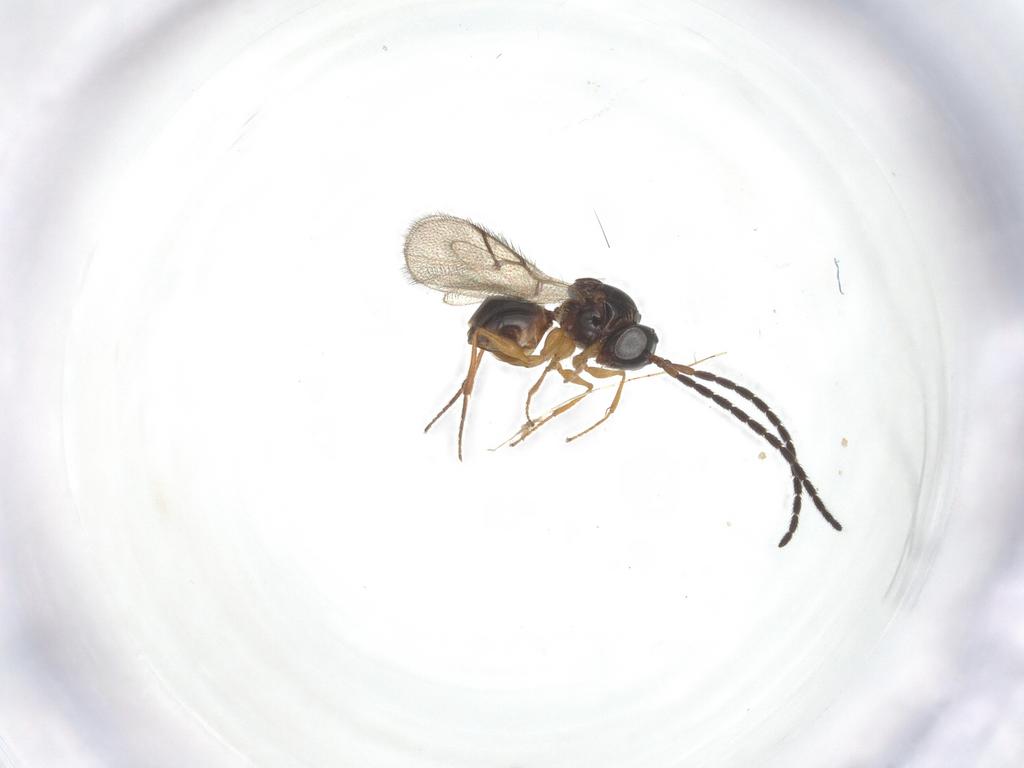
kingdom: Animalia
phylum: Arthropoda
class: Insecta
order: Hymenoptera
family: Figitidae
